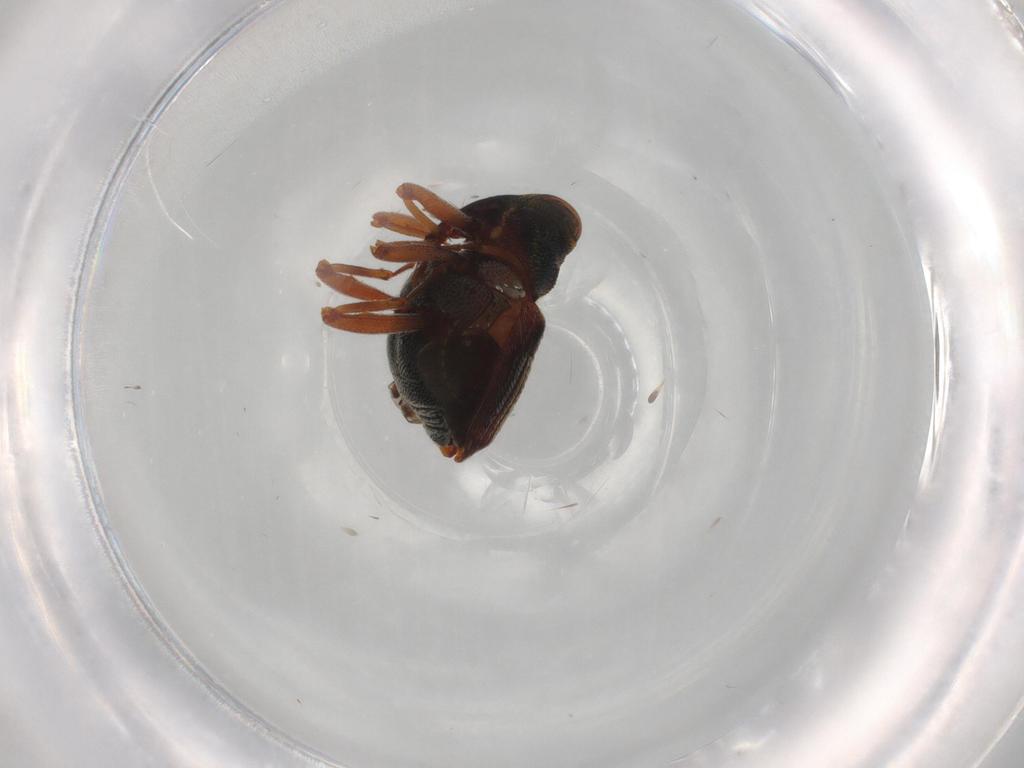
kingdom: Animalia
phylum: Arthropoda
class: Insecta
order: Coleoptera
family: Curculionidae
